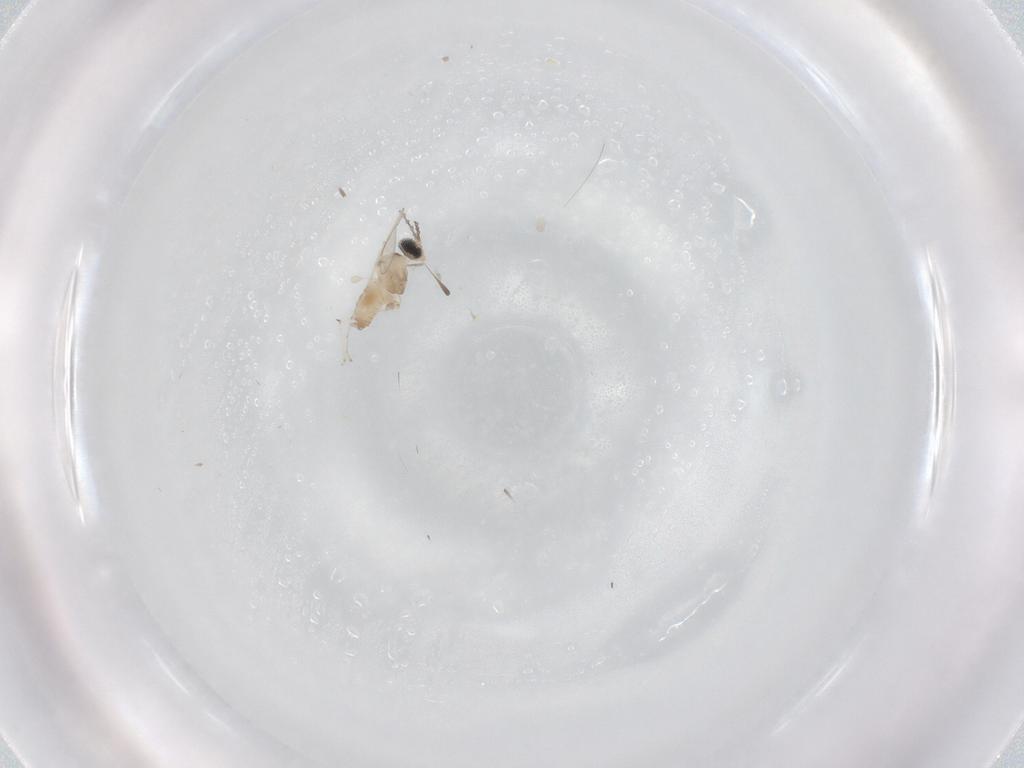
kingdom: Animalia
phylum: Arthropoda
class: Insecta
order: Diptera
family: Cecidomyiidae
